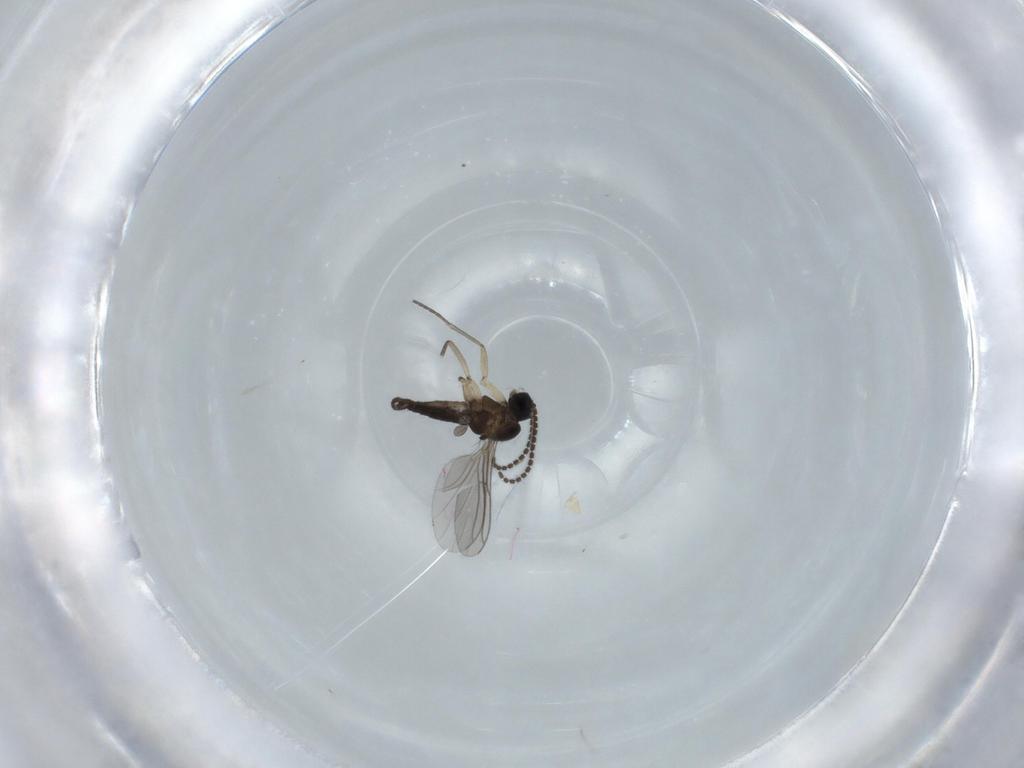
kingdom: Animalia
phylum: Arthropoda
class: Insecta
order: Diptera
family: Sciaridae
